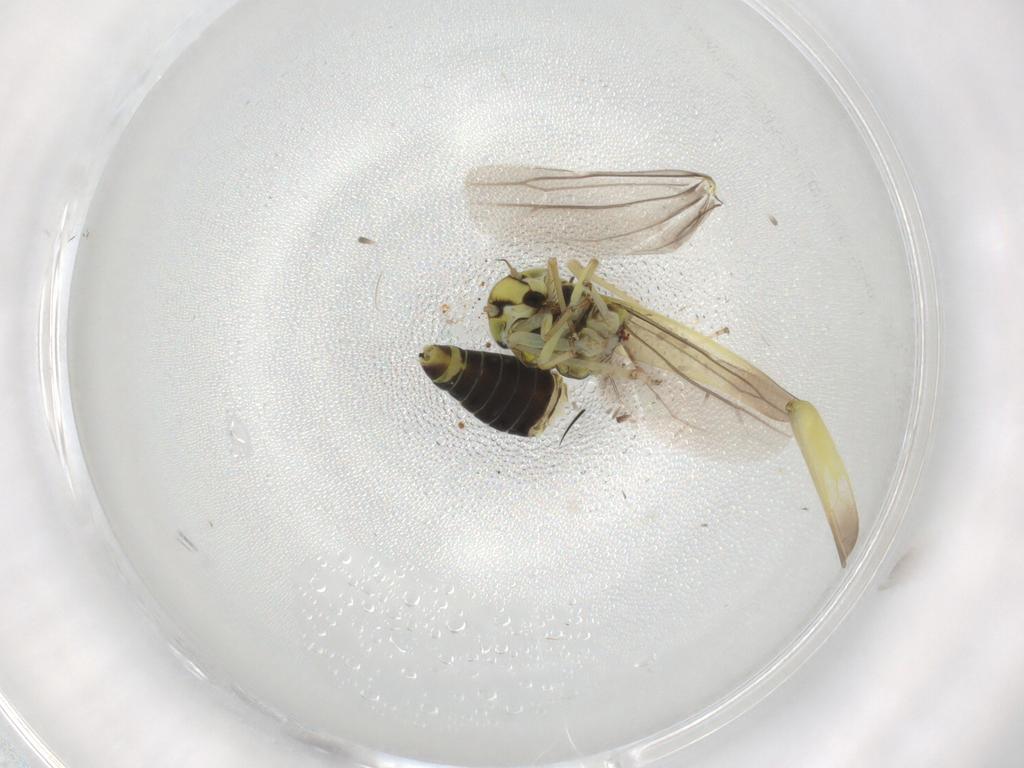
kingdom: Animalia
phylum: Arthropoda
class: Insecta
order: Hemiptera
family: Cicadellidae
